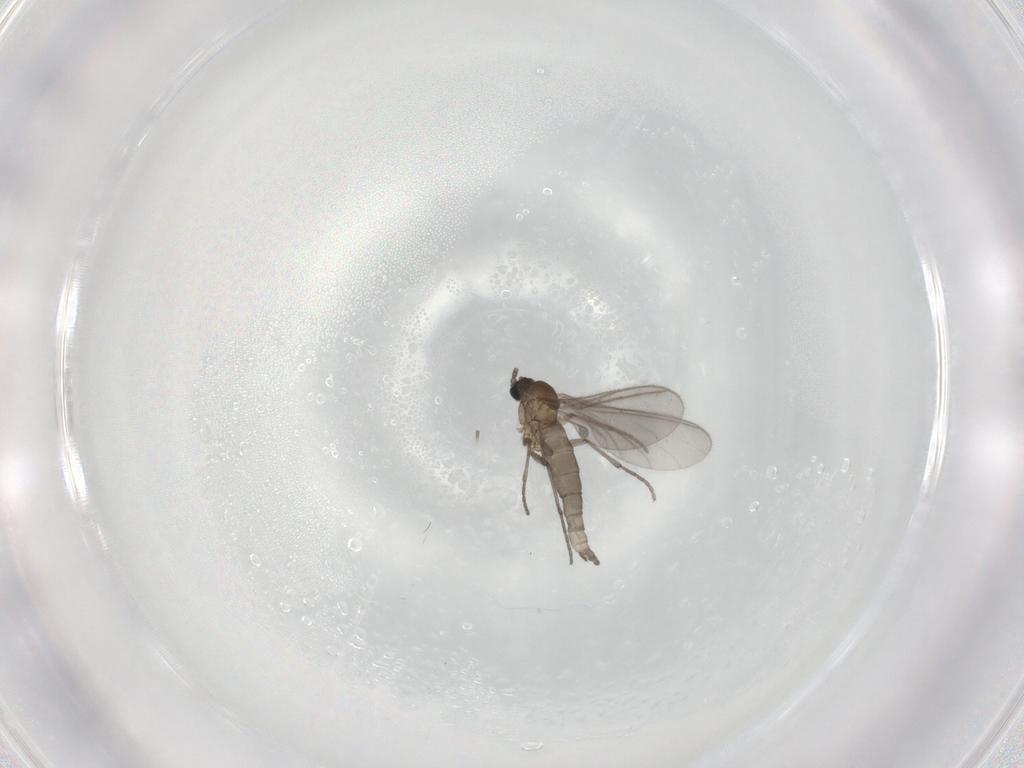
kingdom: Animalia
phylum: Arthropoda
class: Insecta
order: Diptera
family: Sciaridae
